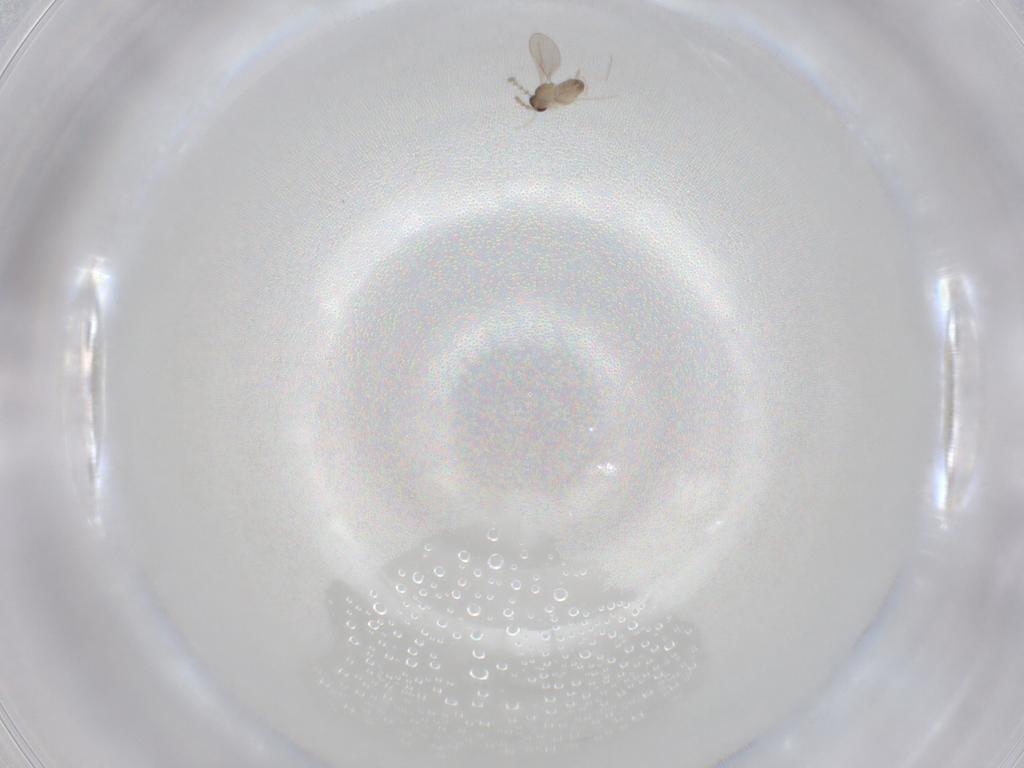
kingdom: Animalia
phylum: Arthropoda
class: Insecta
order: Diptera
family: Cecidomyiidae
